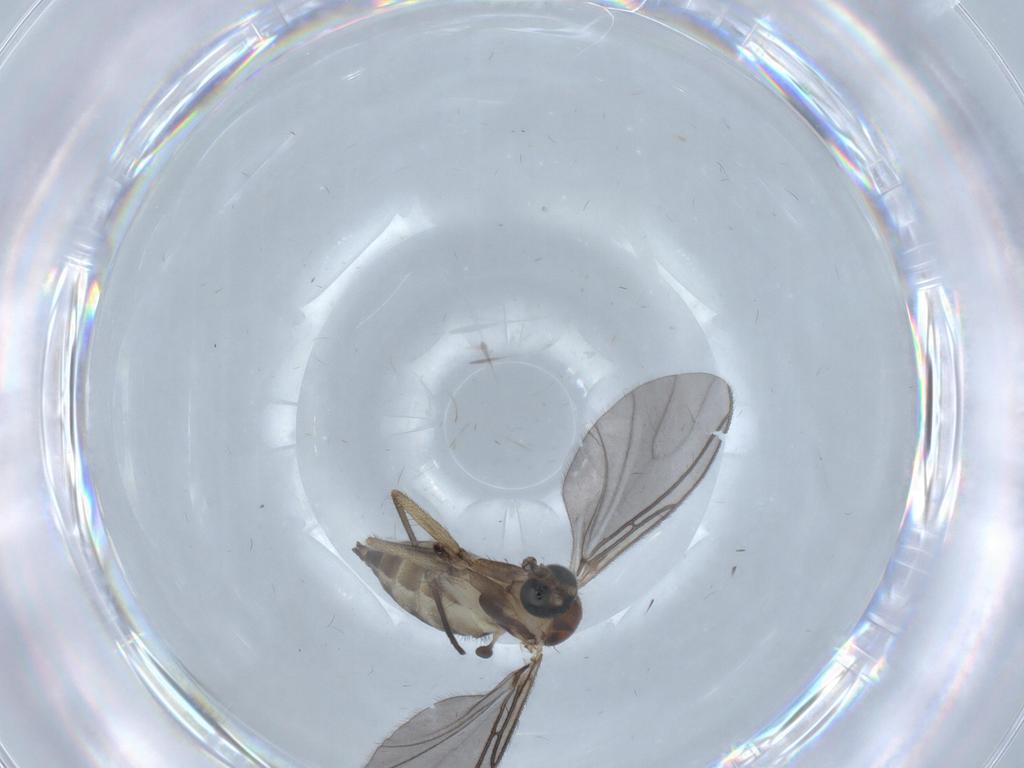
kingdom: Animalia
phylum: Arthropoda
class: Insecta
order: Diptera
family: Sciaridae
